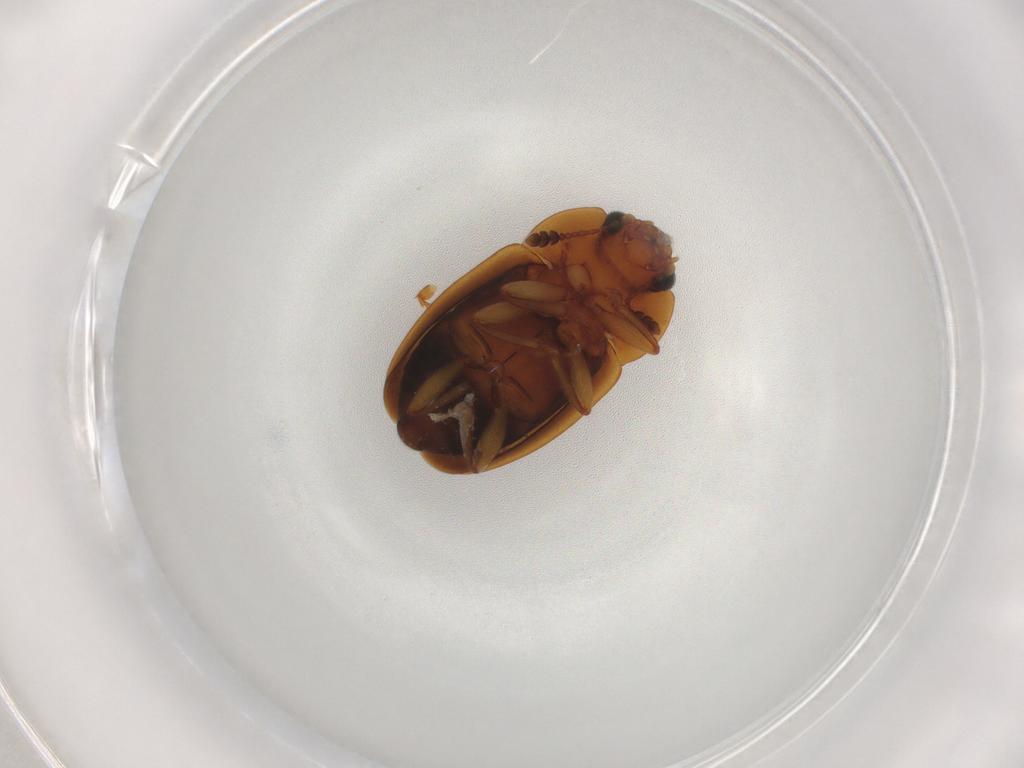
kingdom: Animalia
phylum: Arthropoda
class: Insecta
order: Coleoptera
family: Nitidulidae
